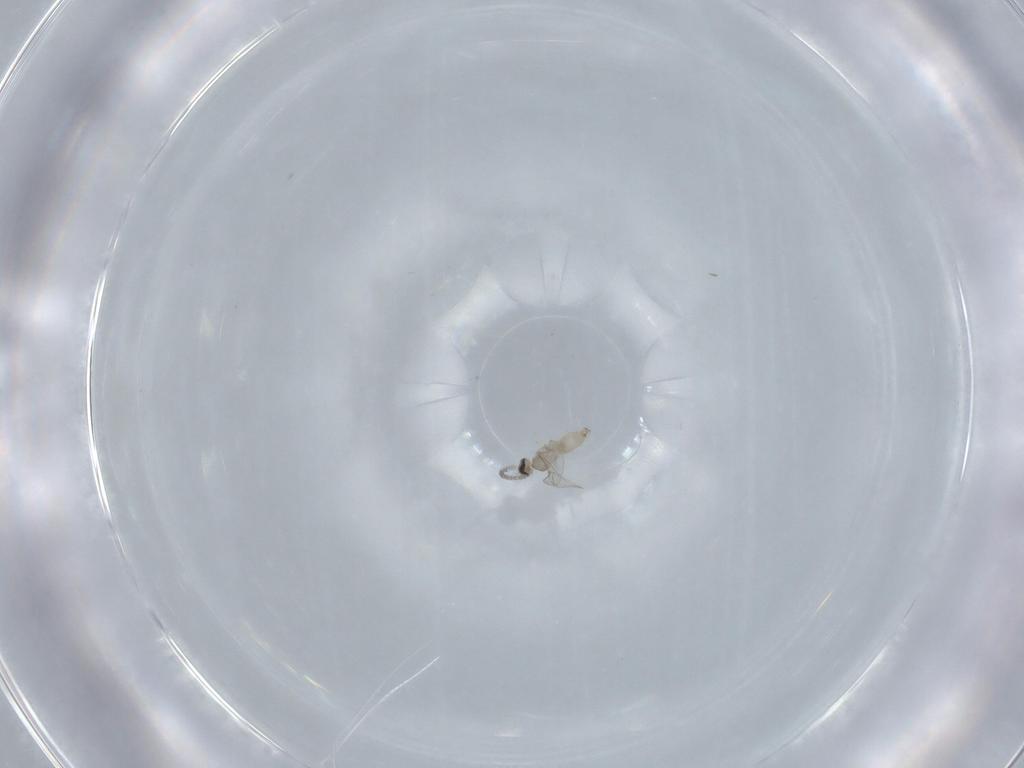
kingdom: Animalia
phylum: Arthropoda
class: Insecta
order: Diptera
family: Cecidomyiidae
